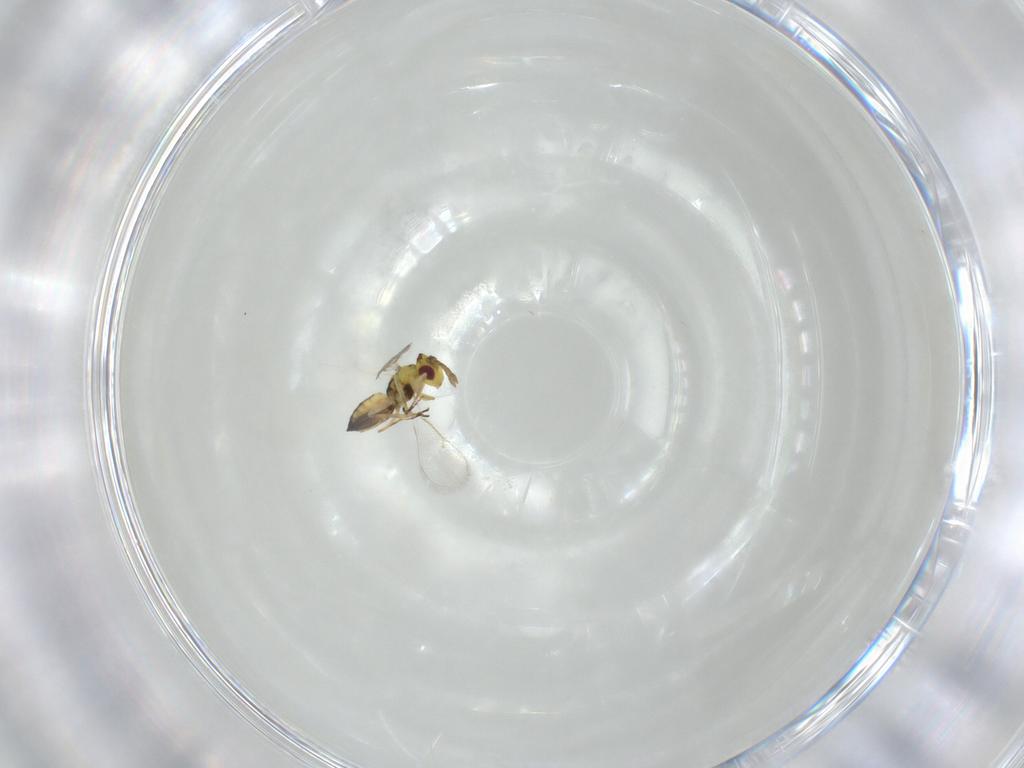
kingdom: Animalia
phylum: Arthropoda
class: Insecta
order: Hymenoptera
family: Eulophidae
